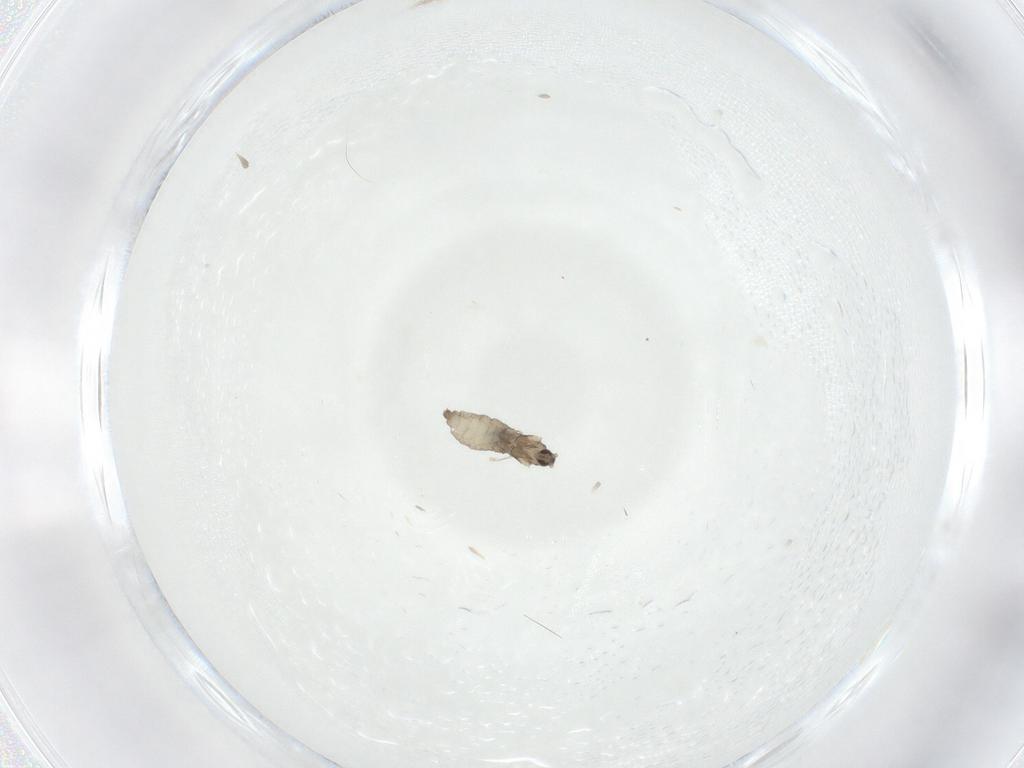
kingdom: Animalia
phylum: Arthropoda
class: Insecta
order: Diptera
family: Cecidomyiidae
